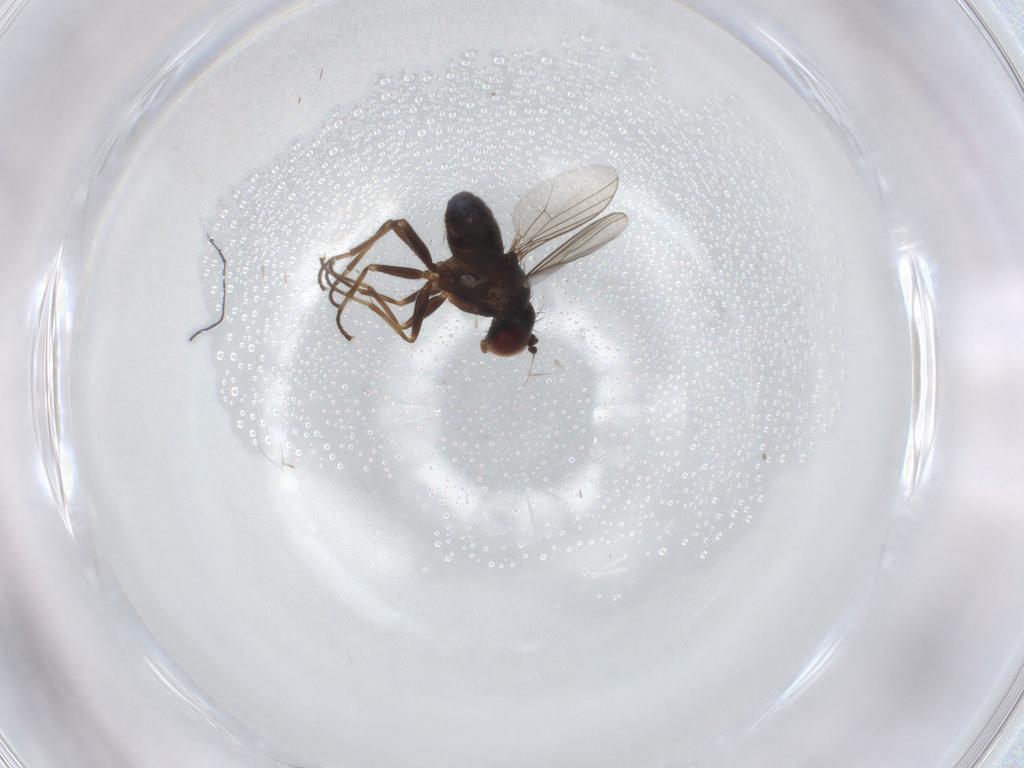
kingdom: Animalia
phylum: Arthropoda
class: Insecta
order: Diptera
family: Dolichopodidae
